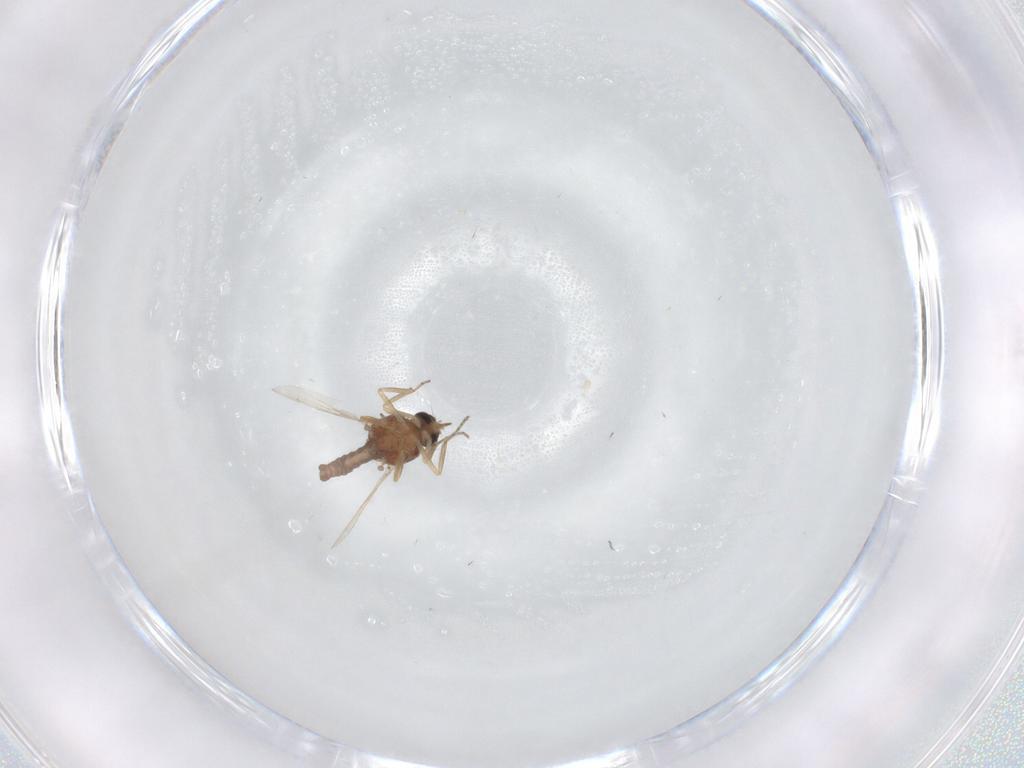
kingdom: Animalia
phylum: Arthropoda
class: Insecta
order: Diptera
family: Ceratopogonidae
